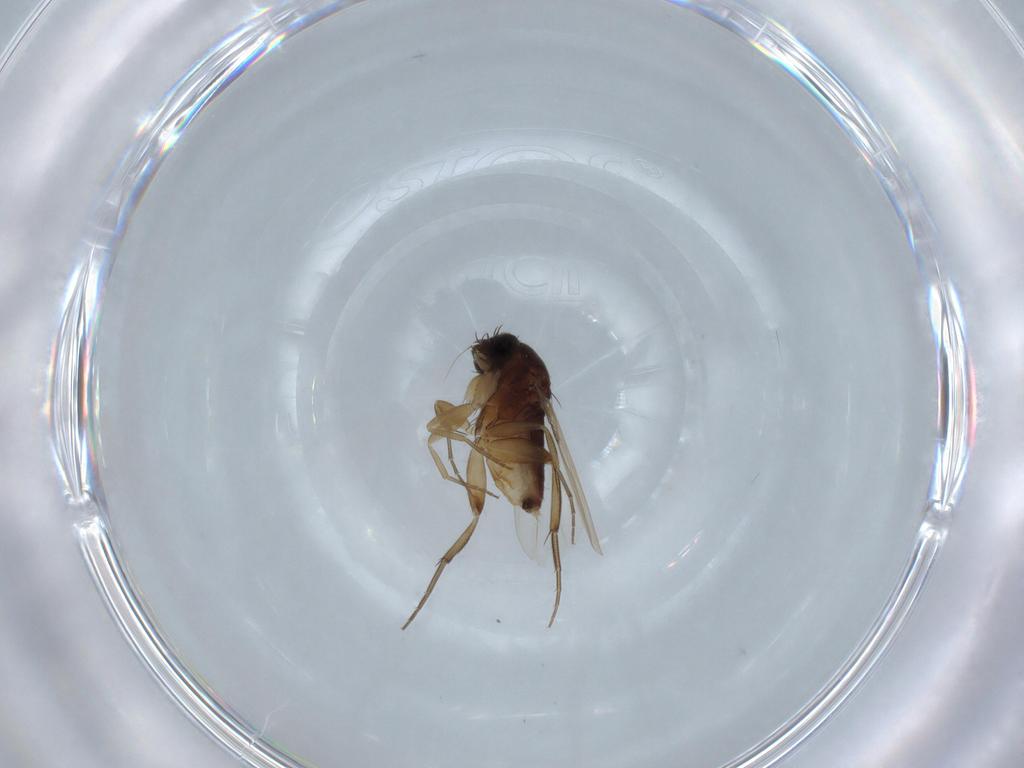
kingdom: Animalia
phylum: Arthropoda
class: Insecta
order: Diptera
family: Phoridae
